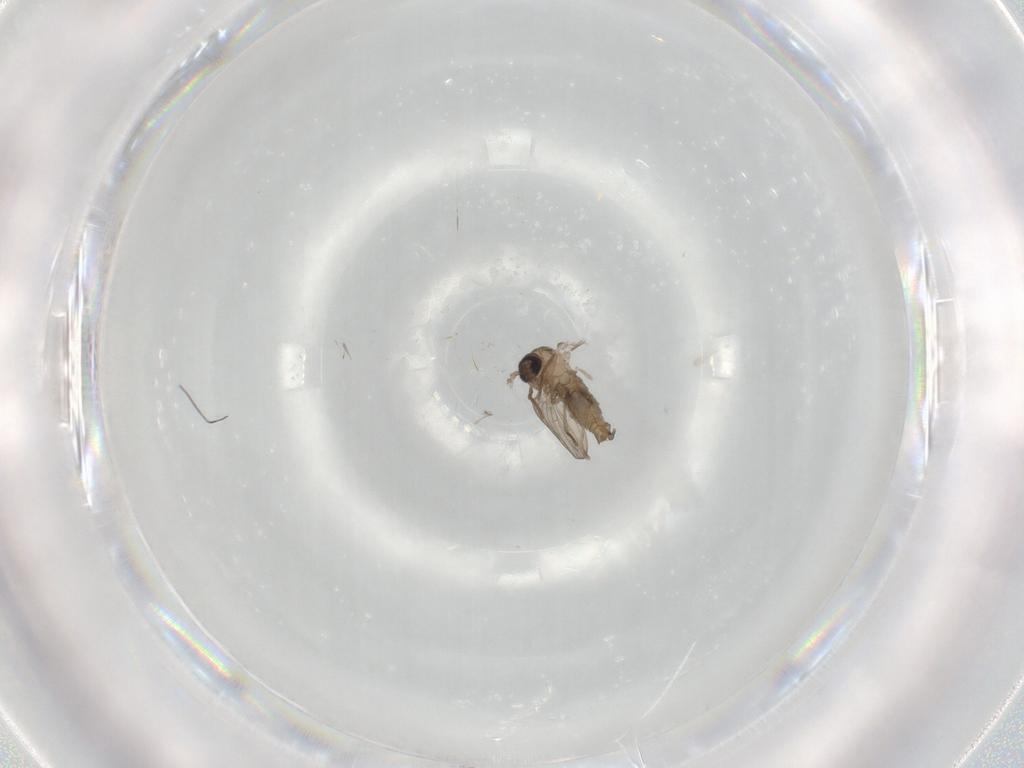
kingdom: Animalia
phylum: Arthropoda
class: Insecta
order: Diptera
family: Psychodidae
